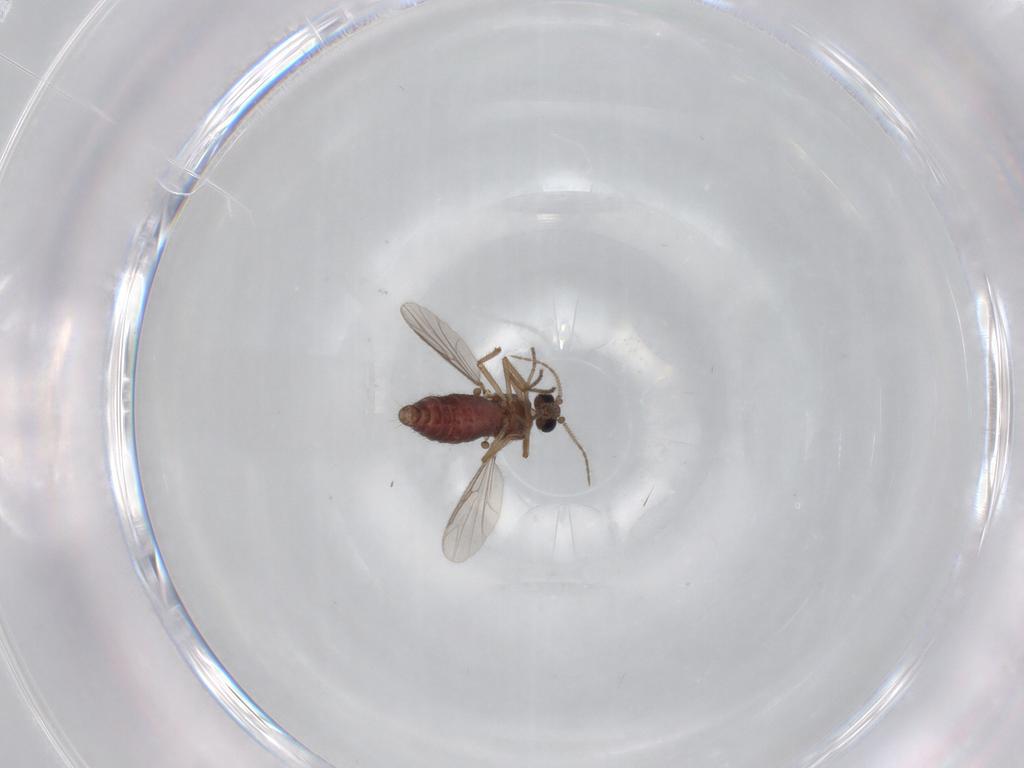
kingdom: Animalia
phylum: Arthropoda
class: Insecta
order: Diptera
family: Ceratopogonidae
